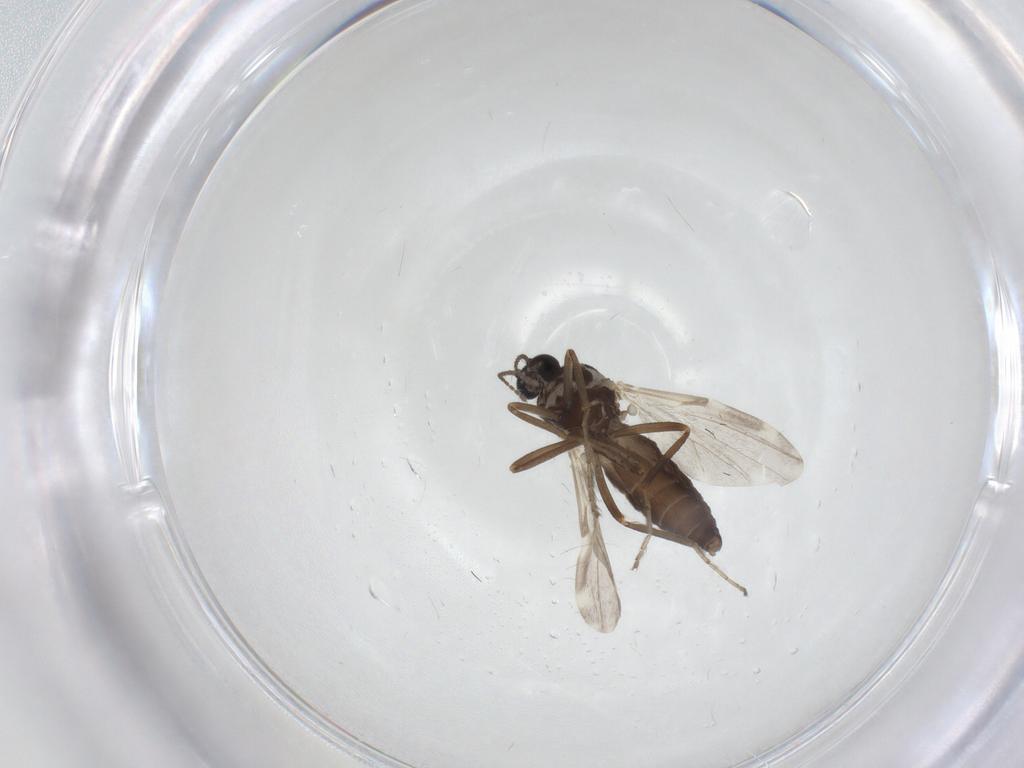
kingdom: Animalia
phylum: Arthropoda
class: Insecta
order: Diptera
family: Ceratopogonidae
